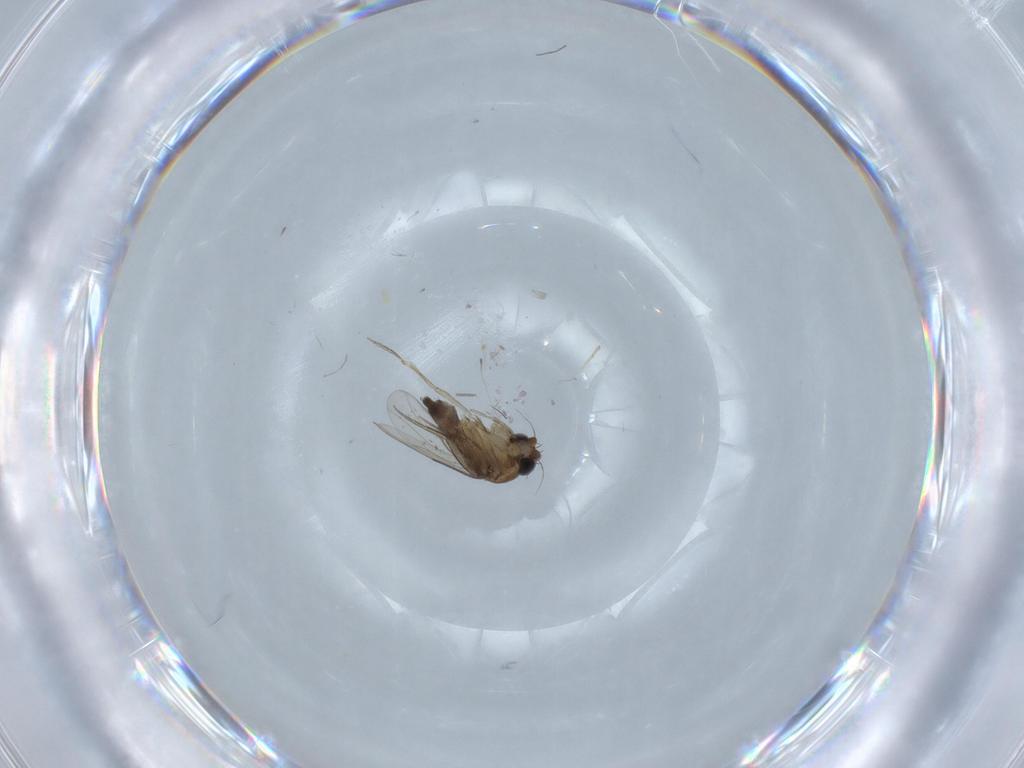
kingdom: Animalia
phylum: Arthropoda
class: Insecta
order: Diptera
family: Phoridae
